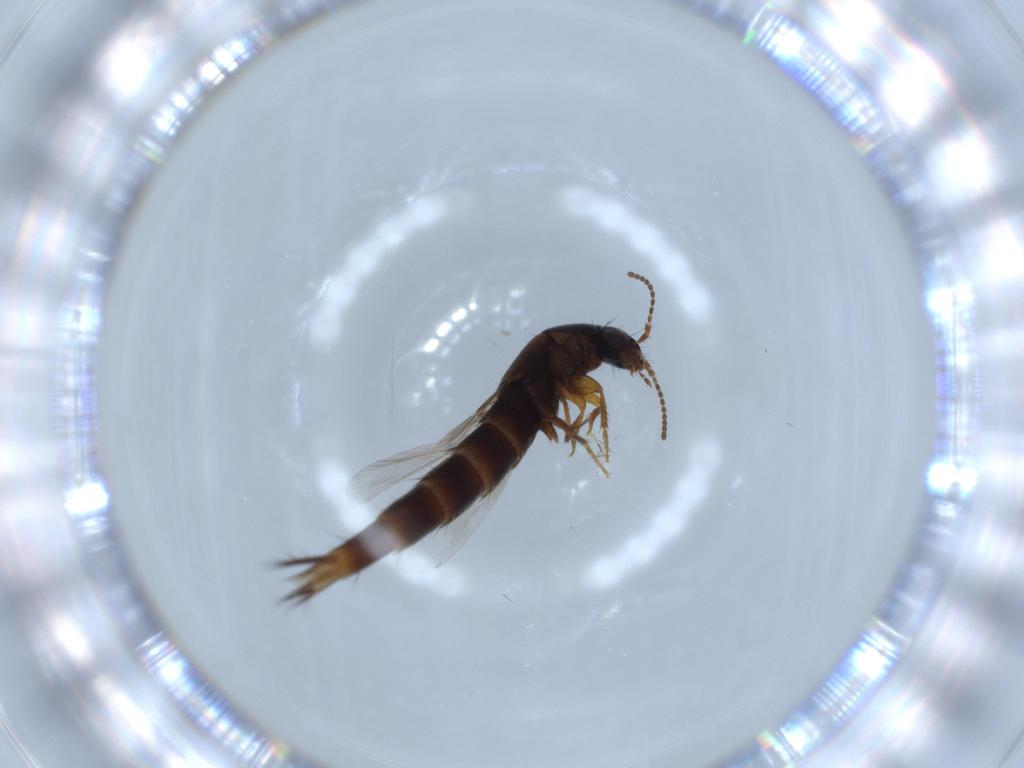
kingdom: Animalia
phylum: Arthropoda
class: Insecta
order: Coleoptera
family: Staphylinidae
